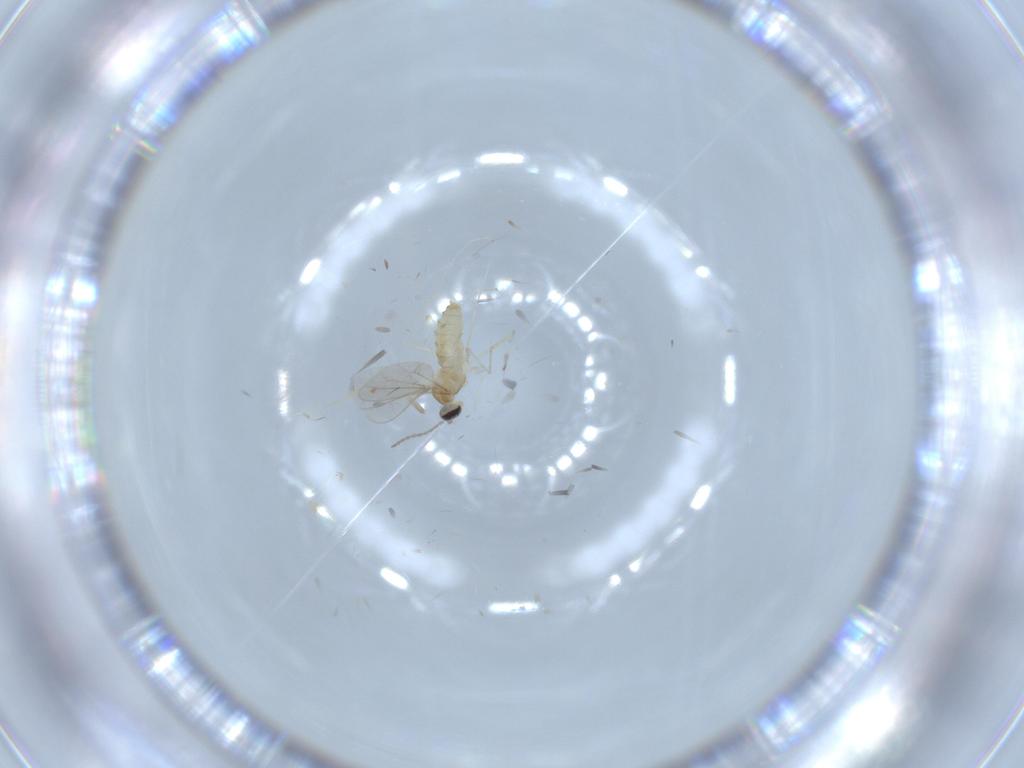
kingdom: Animalia
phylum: Arthropoda
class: Insecta
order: Diptera
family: Cecidomyiidae
